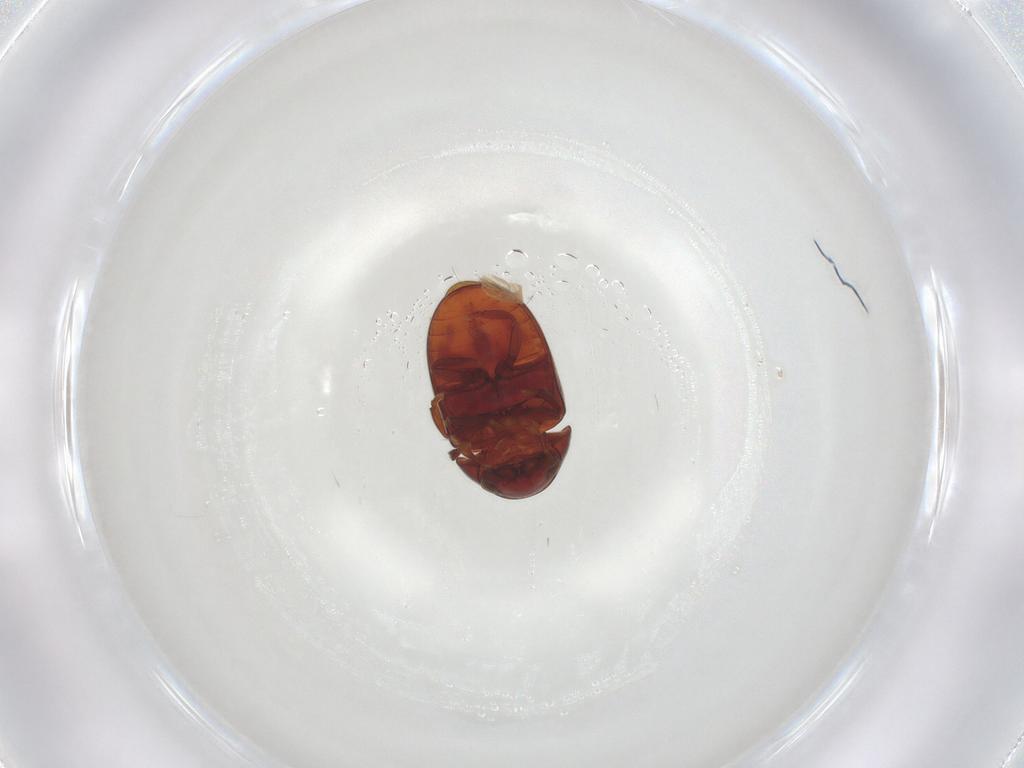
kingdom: Animalia
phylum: Arthropoda
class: Insecta
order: Coleoptera
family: Ptinidae
